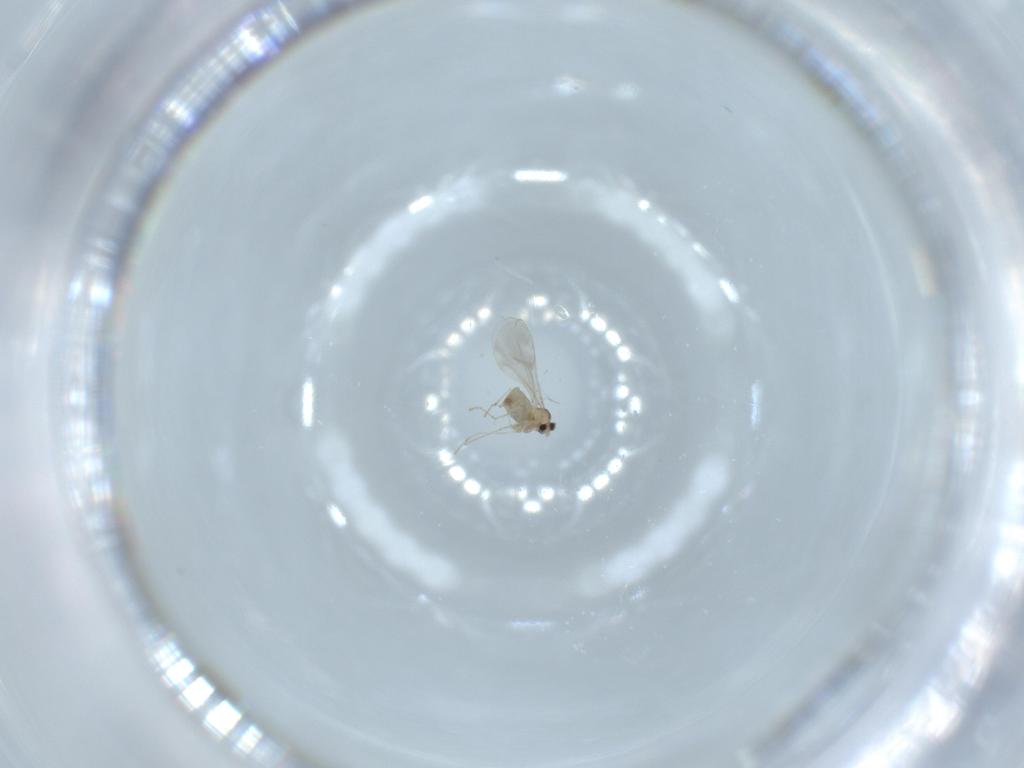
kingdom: Animalia
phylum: Arthropoda
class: Insecta
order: Diptera
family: Cecidomyiidae
